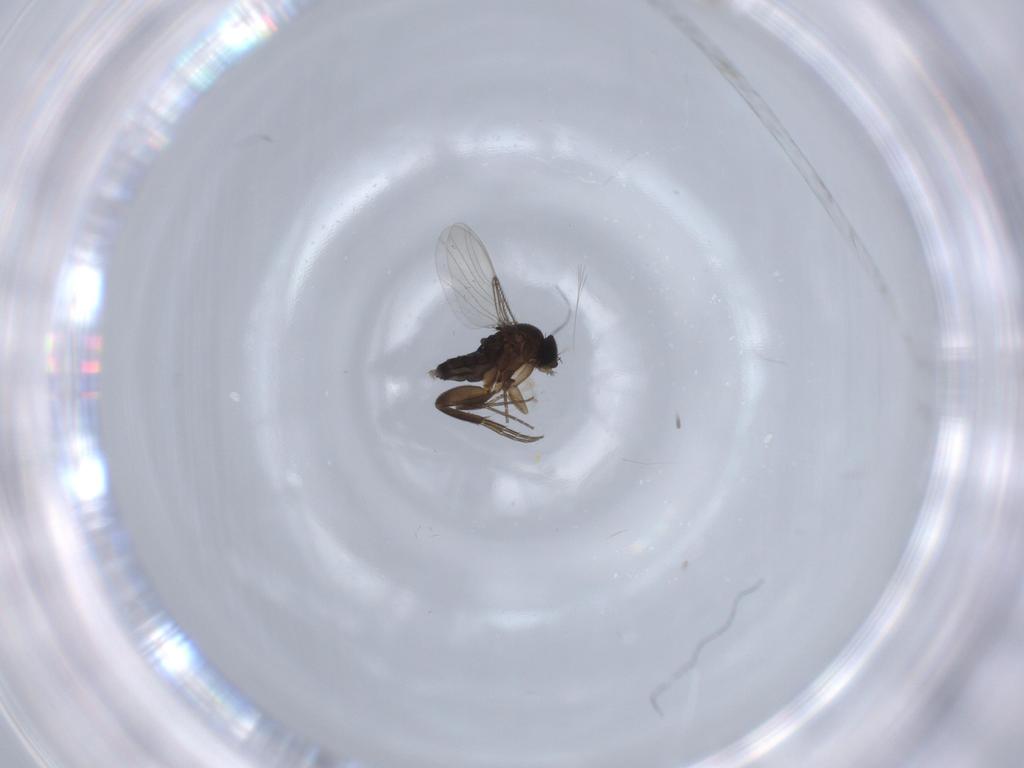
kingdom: Animalia
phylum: Arthropoda
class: Insecta
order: Diptera
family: Phoridae
